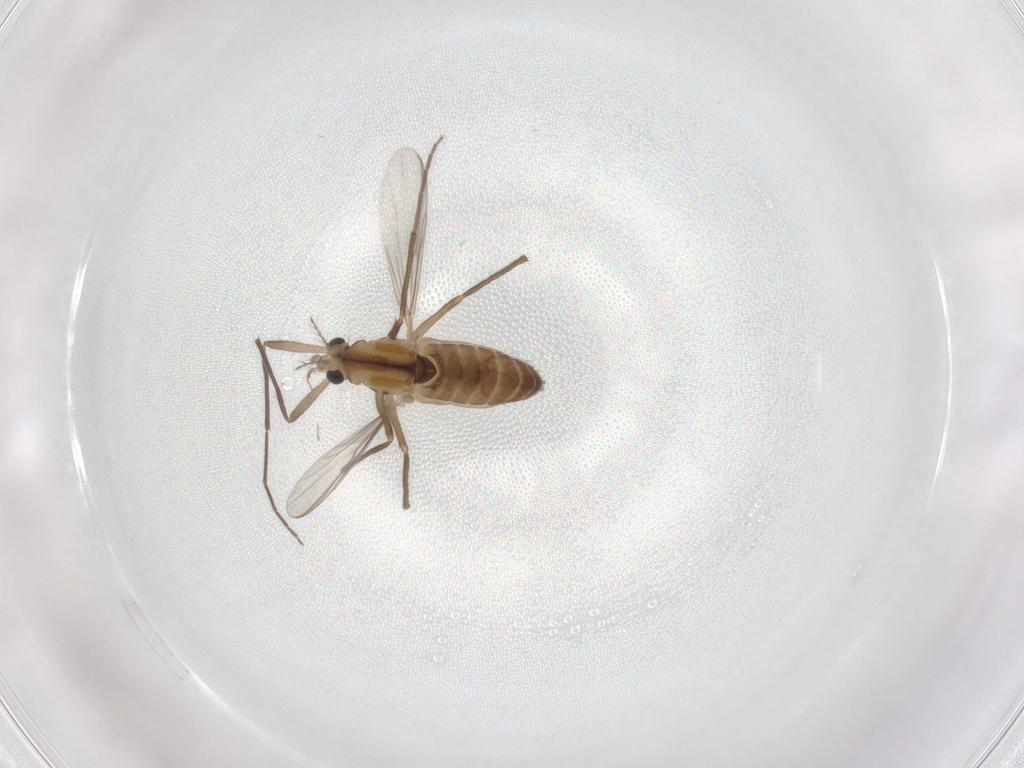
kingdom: Animalia
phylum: Arthropoda
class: Insecta
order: Diptera
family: Chironomidae
